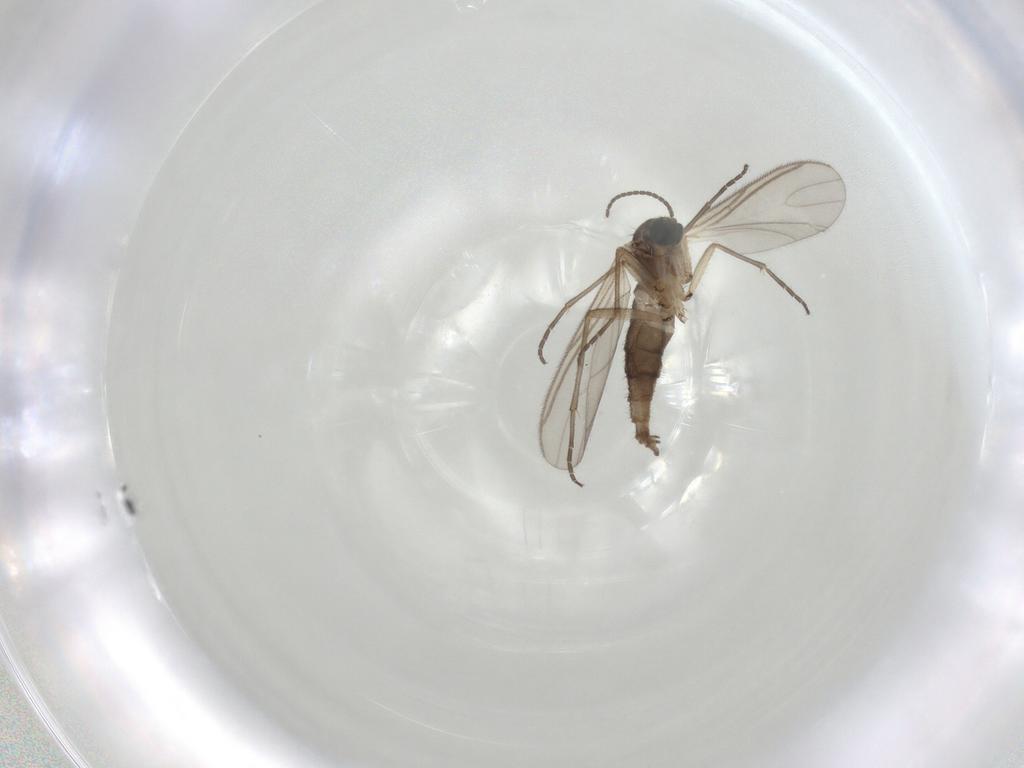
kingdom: Animalia
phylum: Arthropoda
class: Insecta
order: Diptera
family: Sciaridae
